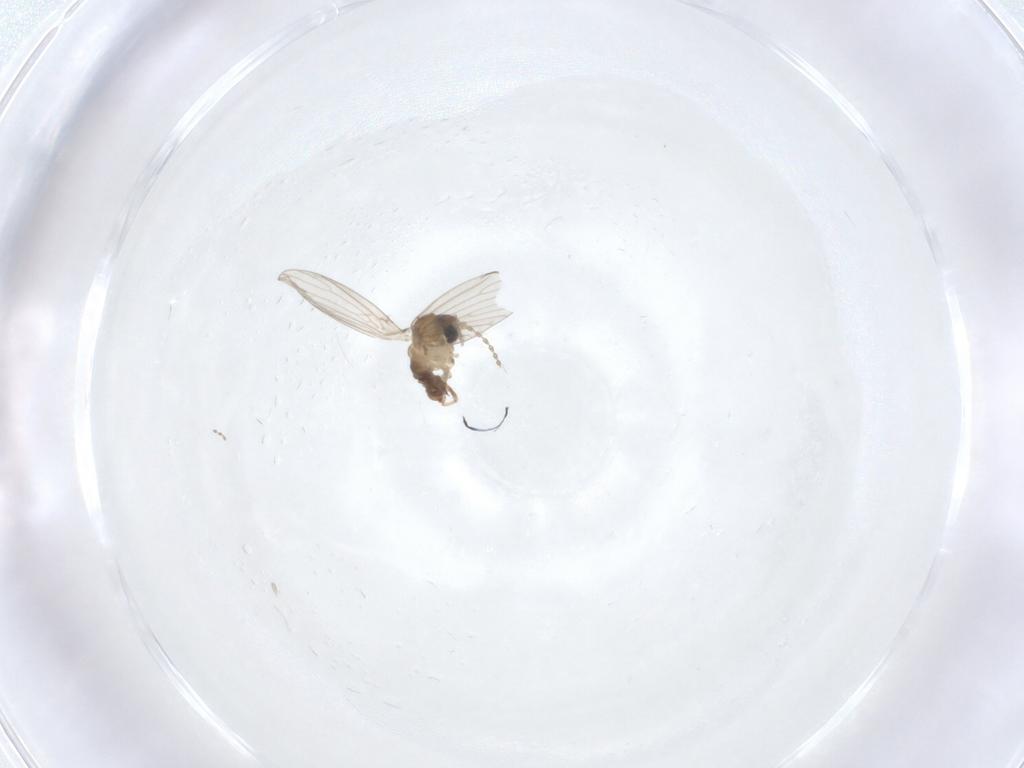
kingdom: Animalia
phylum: Arthropoda
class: Insecta
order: Diptera
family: Psychodidae
